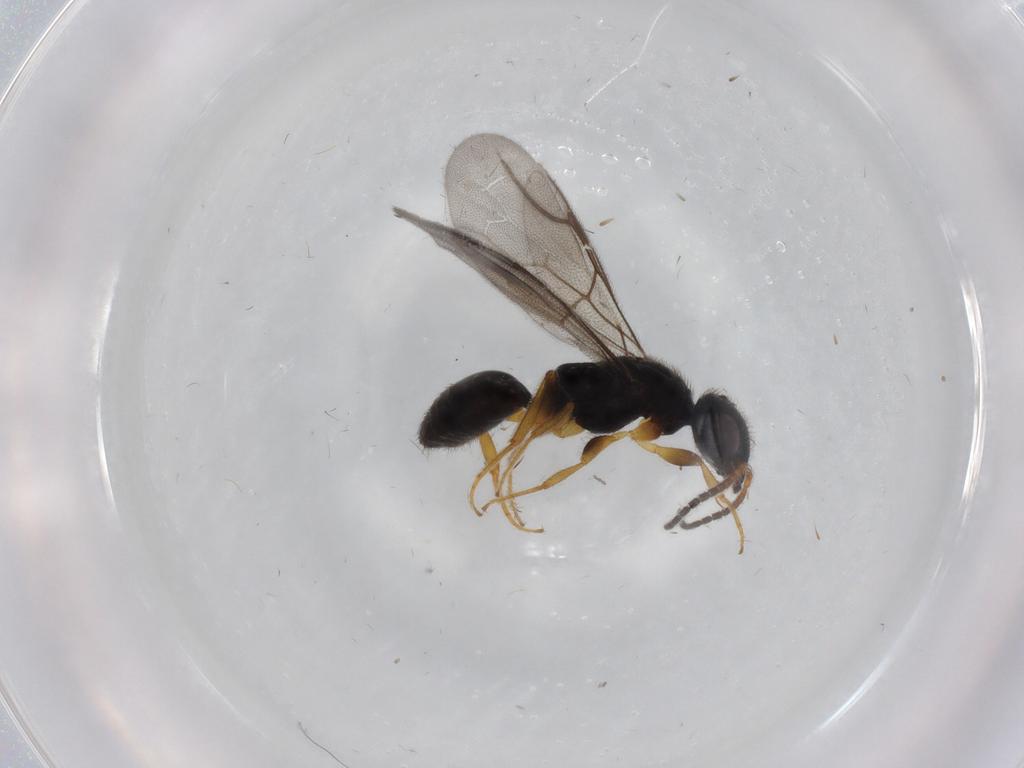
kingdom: Animalia
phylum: Arthropoda
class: Insecta
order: Hymenoptera
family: Bethylidae
